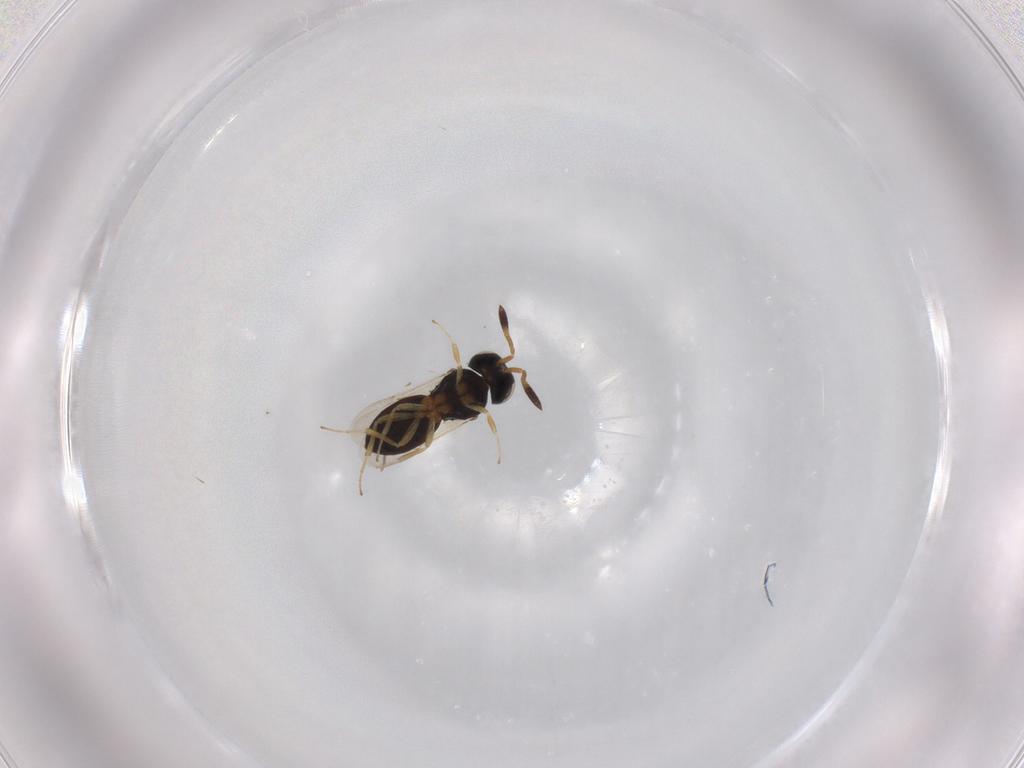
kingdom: Animalia
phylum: Arthropoda
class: Insecta
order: Hymenoptera
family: Scelionidae
